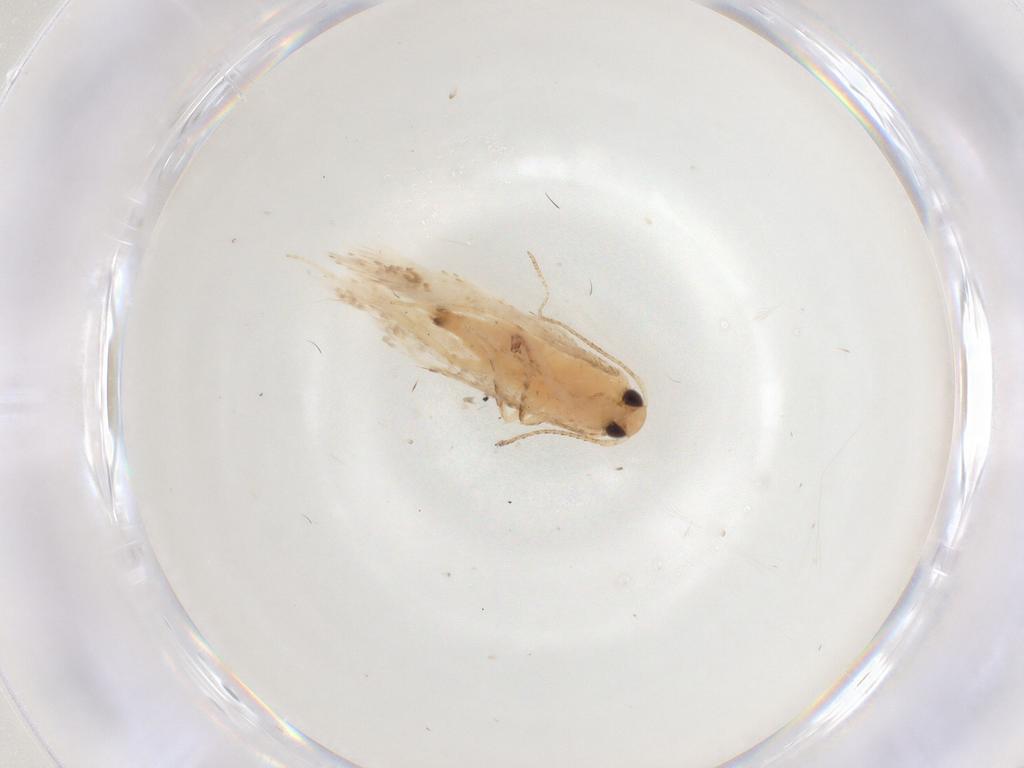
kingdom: Animalia
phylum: Arthropoda
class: Insecta
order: Lepidoptera
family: Gelechiidae
